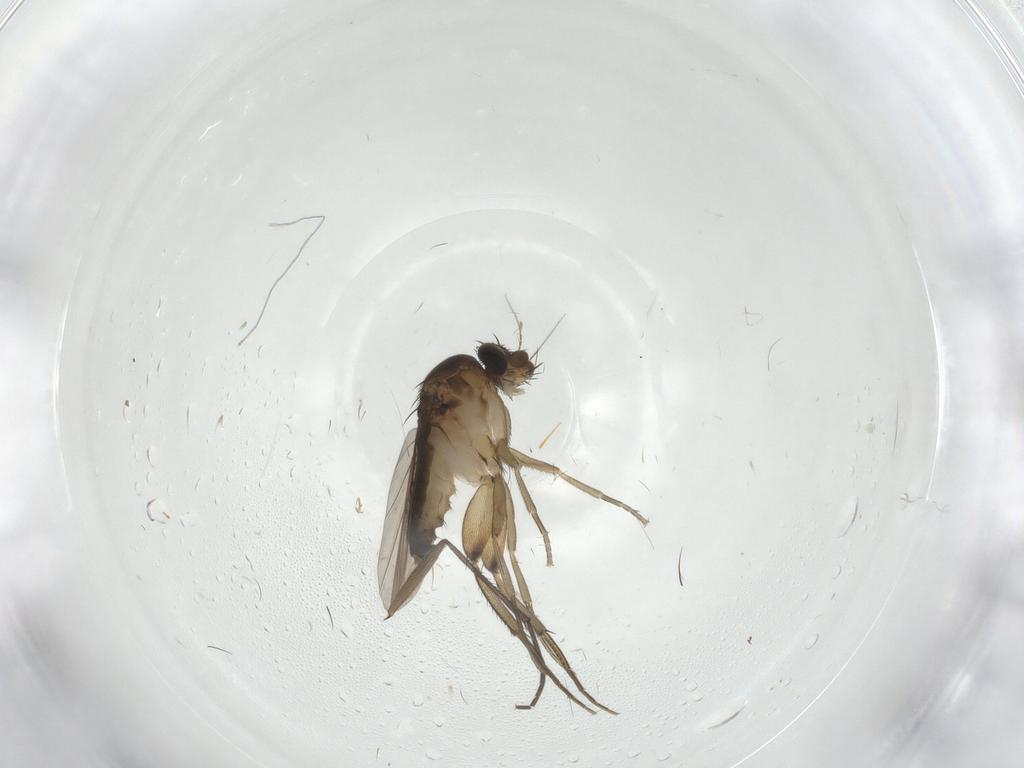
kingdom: Animalia
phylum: Arthropoda
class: Insecta
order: Diptera
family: Phoridae
